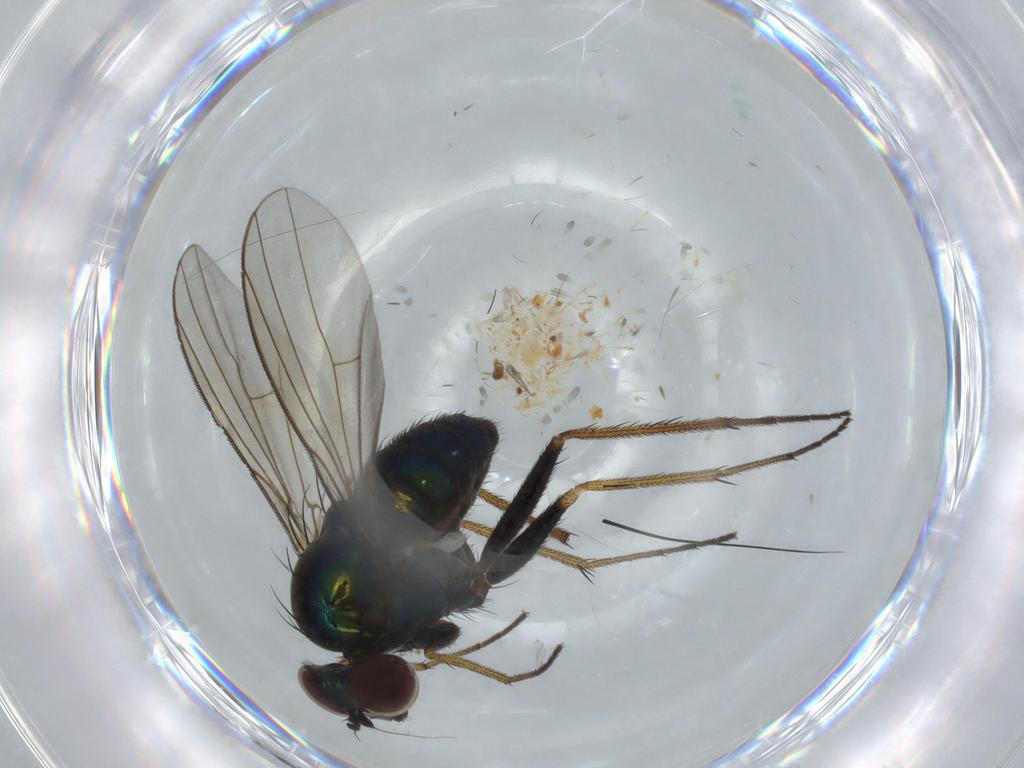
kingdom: Animalia
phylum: Arthropoda
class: Insecta
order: Diptera
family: Dolichopodidae
